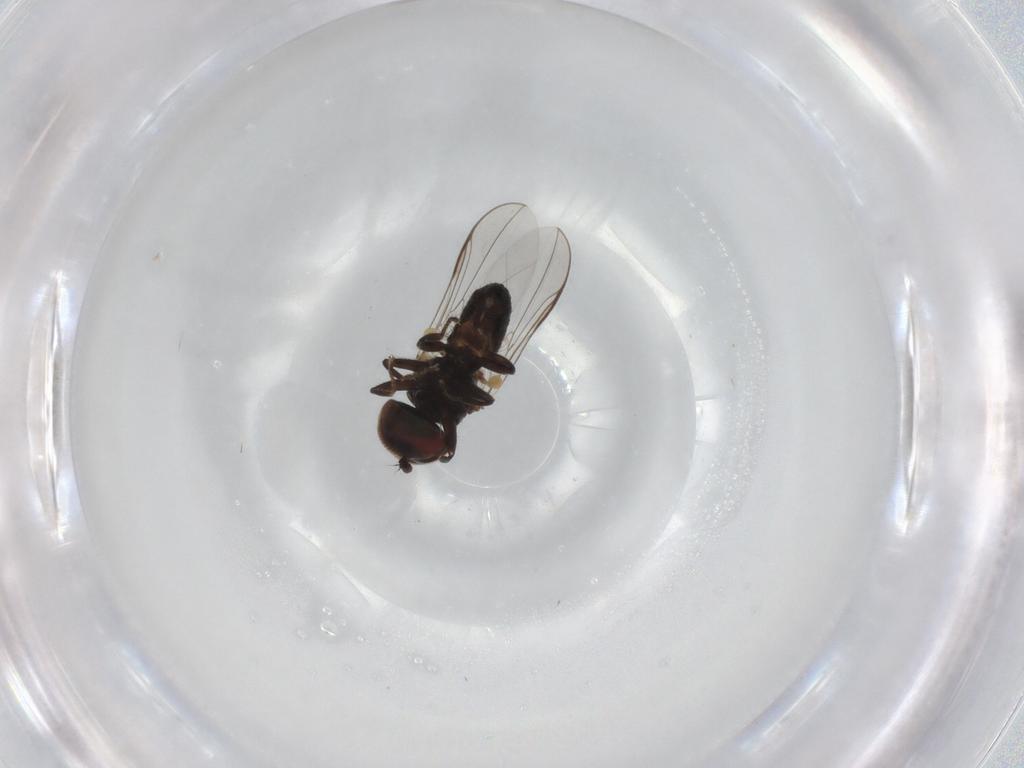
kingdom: Animalia
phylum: Arthropoda
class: Insecta
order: Diptera
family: Pipunculidae
